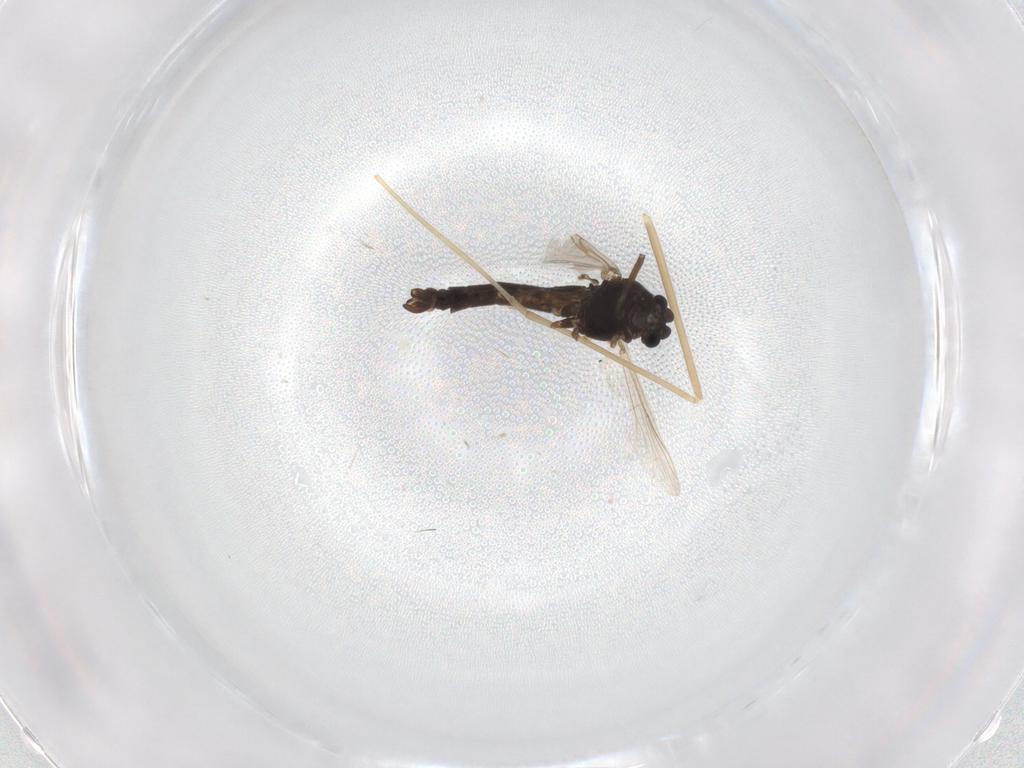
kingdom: Animalia
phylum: Arthropoda
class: Insecta
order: Diptera
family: Chironomidae
